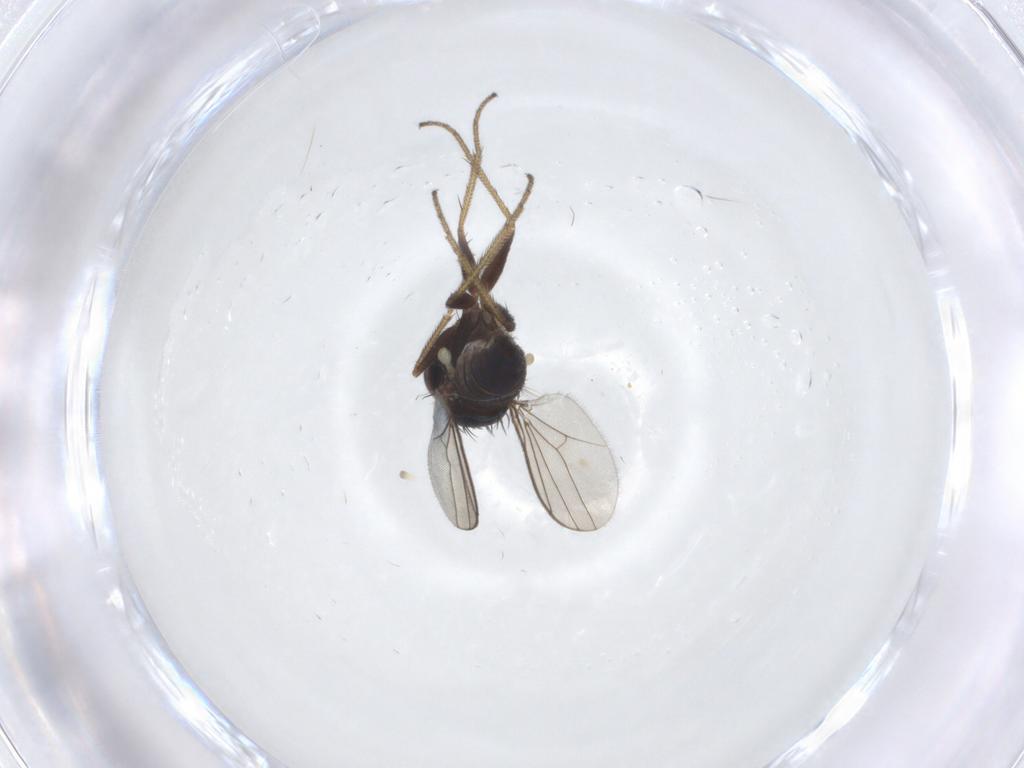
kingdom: Animalia
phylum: Arthropoda
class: Insecta
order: Diptera
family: Dolichopodidae
